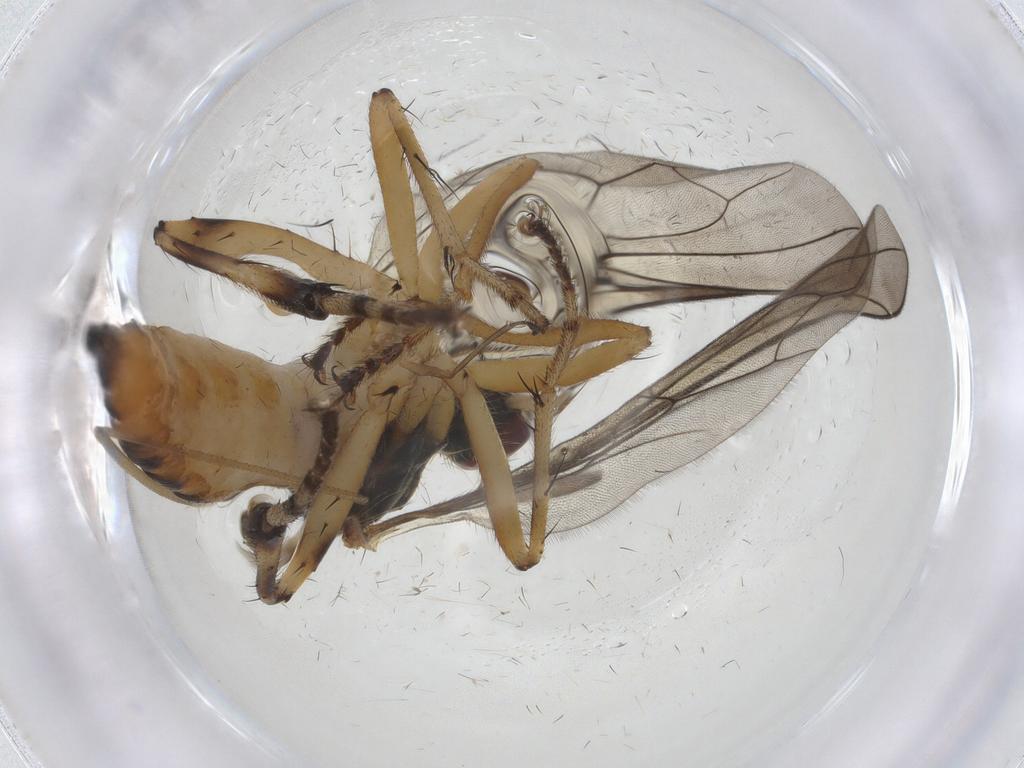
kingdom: Animalia
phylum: Arthropoda
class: Insecta
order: Diptera
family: Hybotidae
